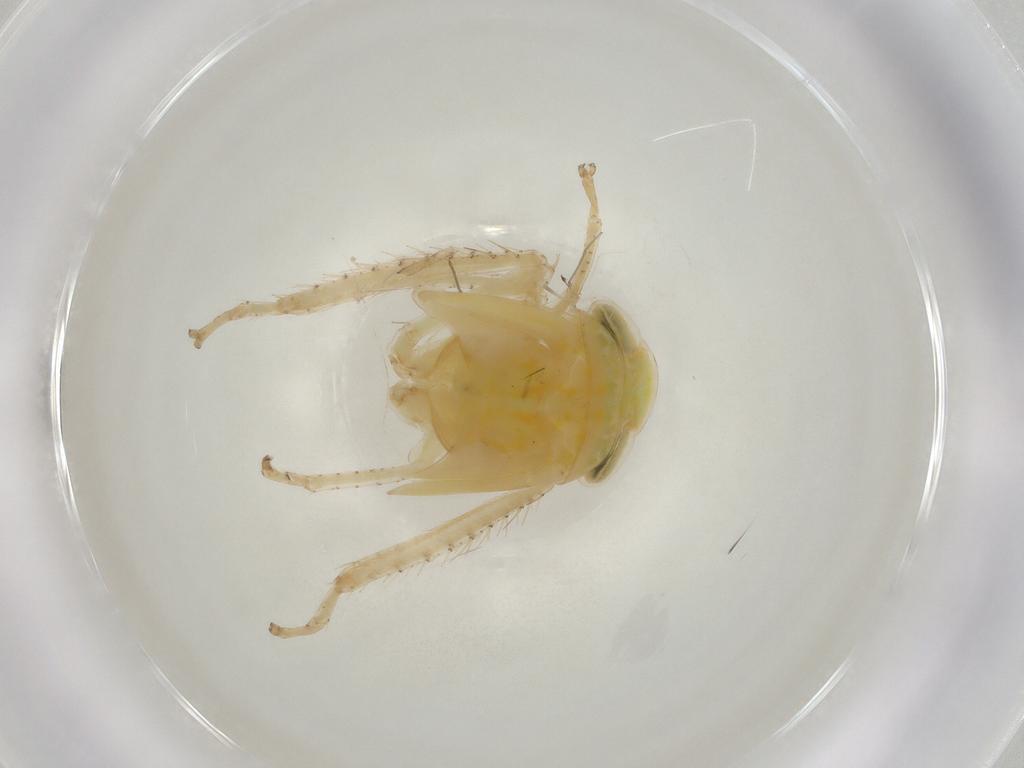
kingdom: Animalia
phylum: Arthropoda
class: Insecta
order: Hemiptera
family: Cicadellidae
